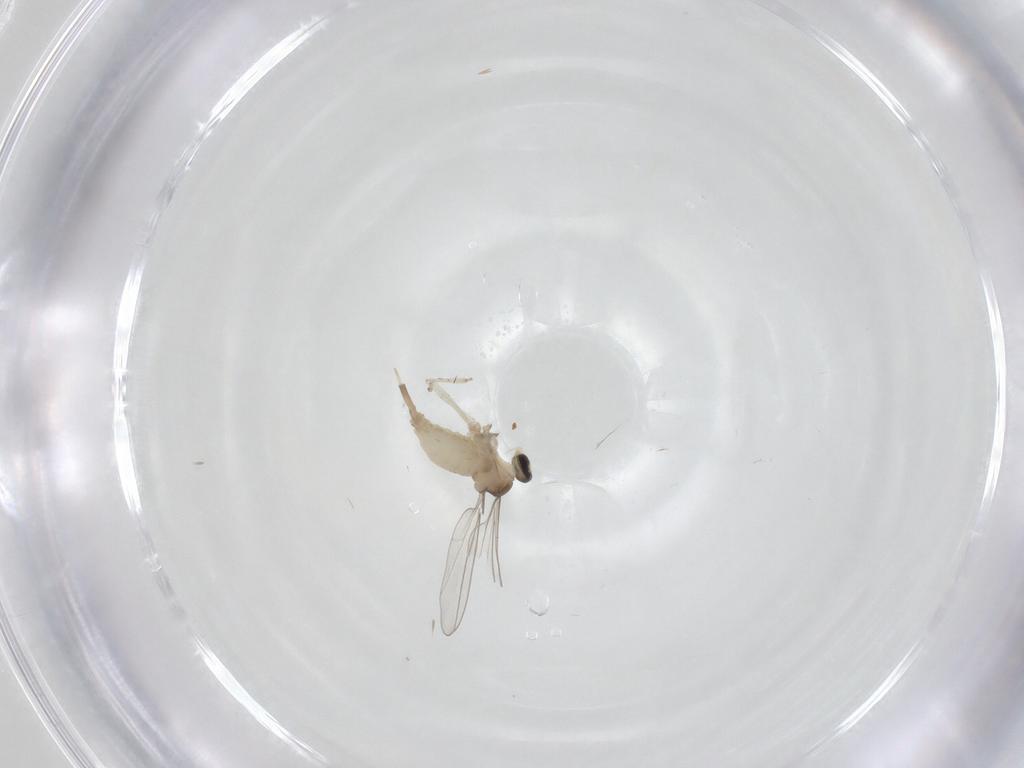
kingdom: Animalia
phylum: Arthropoda
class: Insecta
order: Diptera
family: Phoridae
